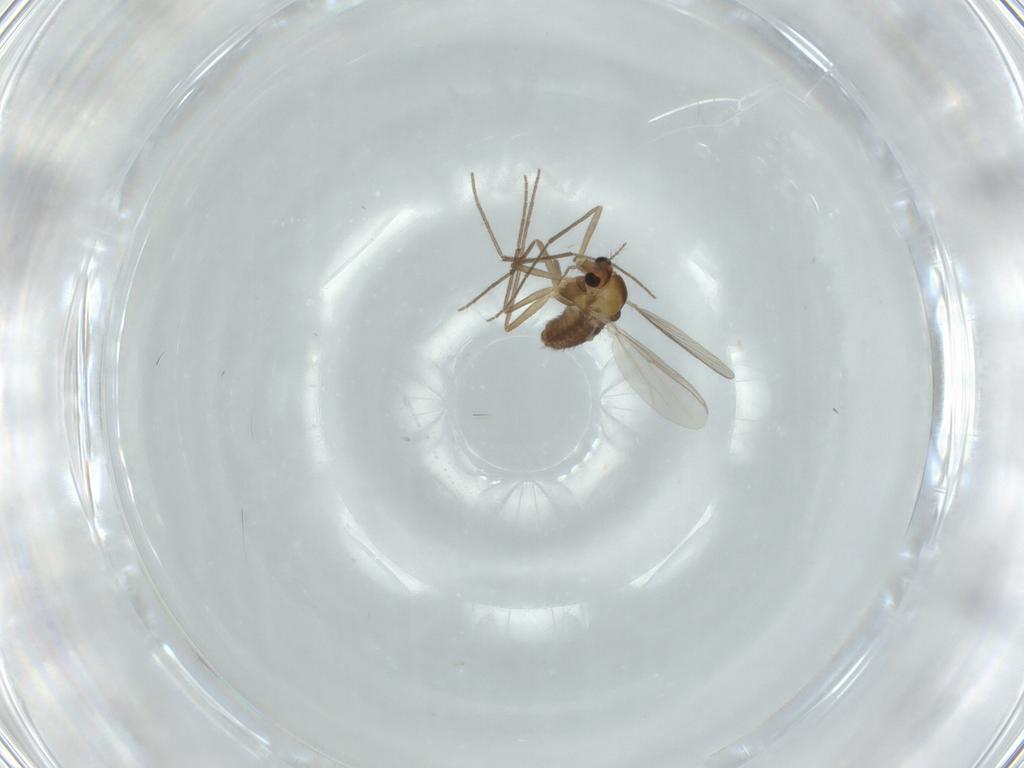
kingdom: Animalia
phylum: Arthropoda
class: Insecta
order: Diptera
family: Chironomidae
